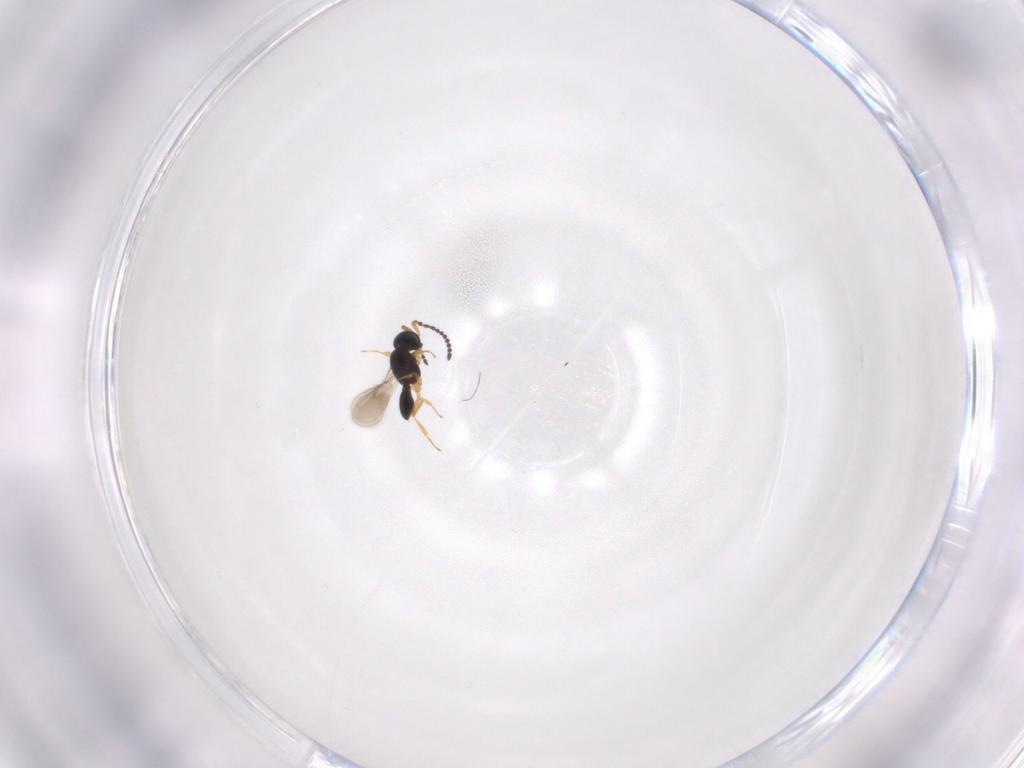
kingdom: Animalia
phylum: Arthropoda
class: Insecta
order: Hymenoptera
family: Scelionidae
